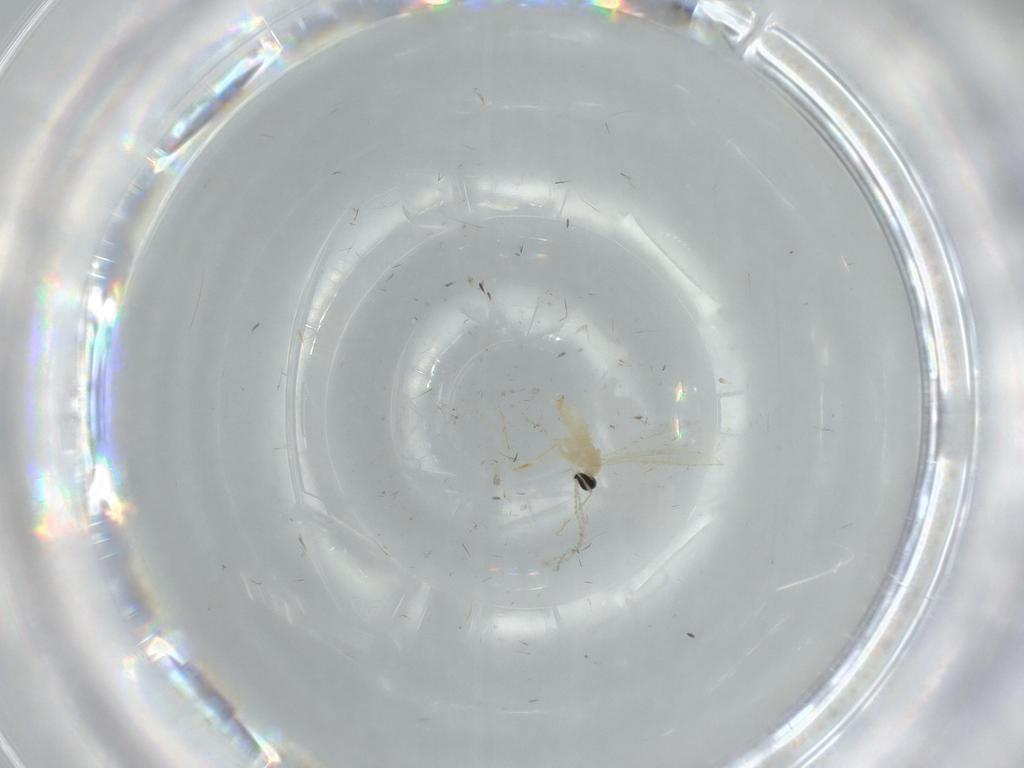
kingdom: Animalia
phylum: Arthropoda
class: Insecta
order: Diptera
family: Cecidomyiidae
